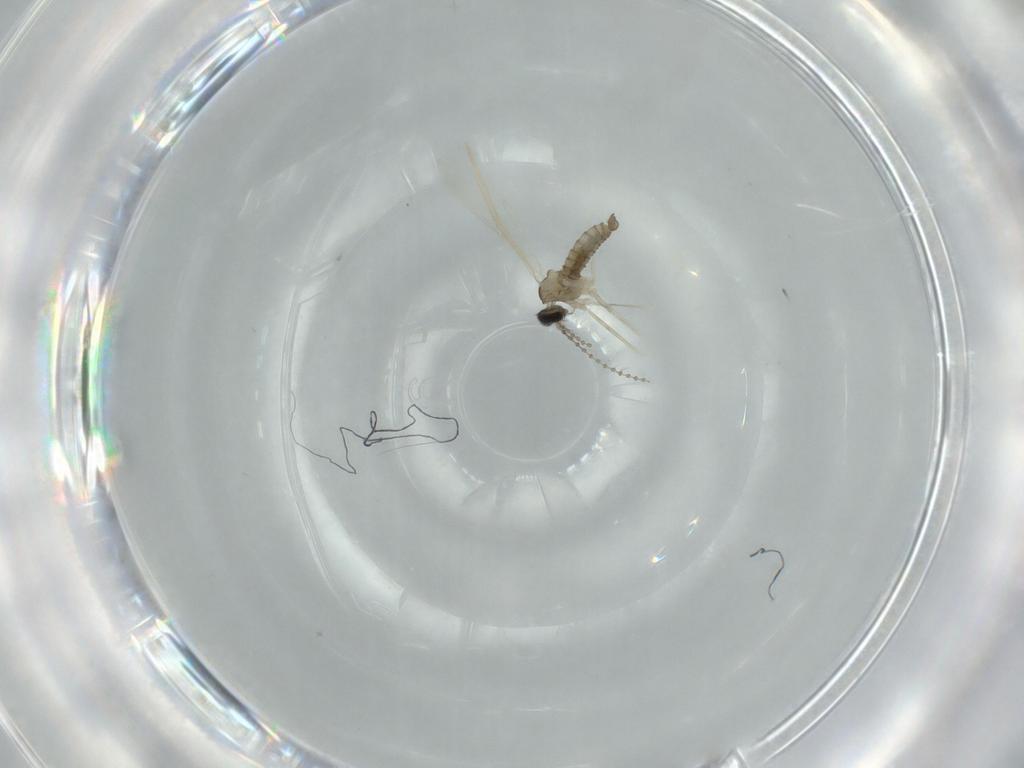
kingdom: Animalia
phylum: Arthropoda
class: Insecta
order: Diptera
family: Cecidomyiidae
